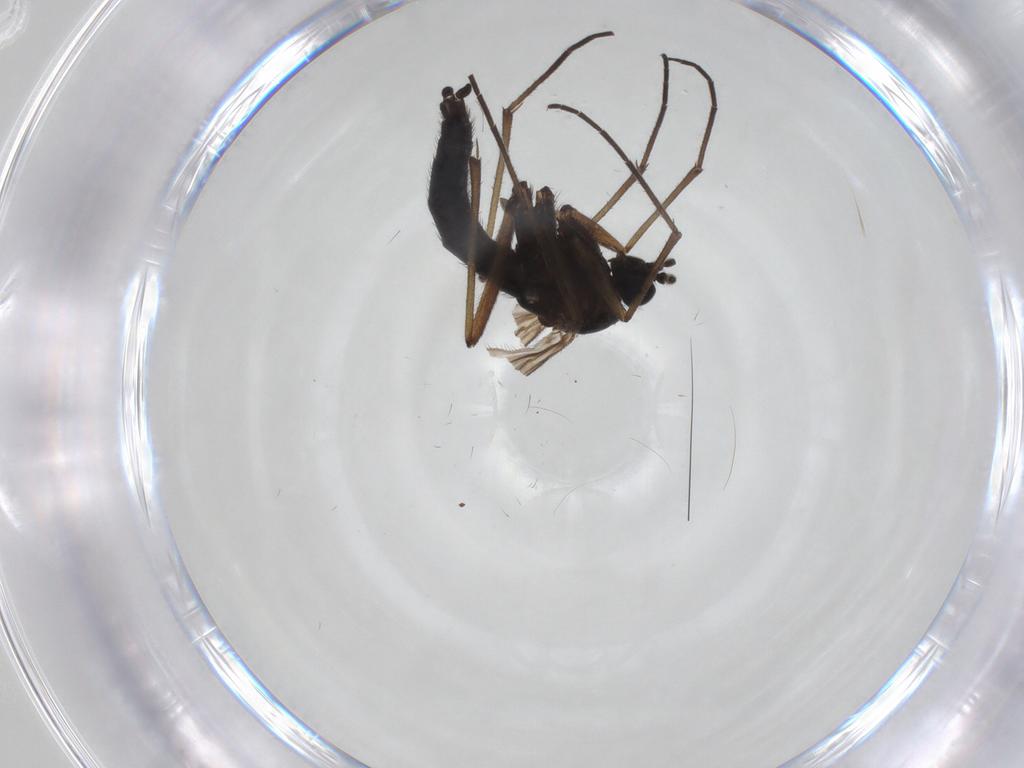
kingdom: Animalia
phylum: Arthropoda
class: Insecta
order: Diptera
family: Sciaridae
